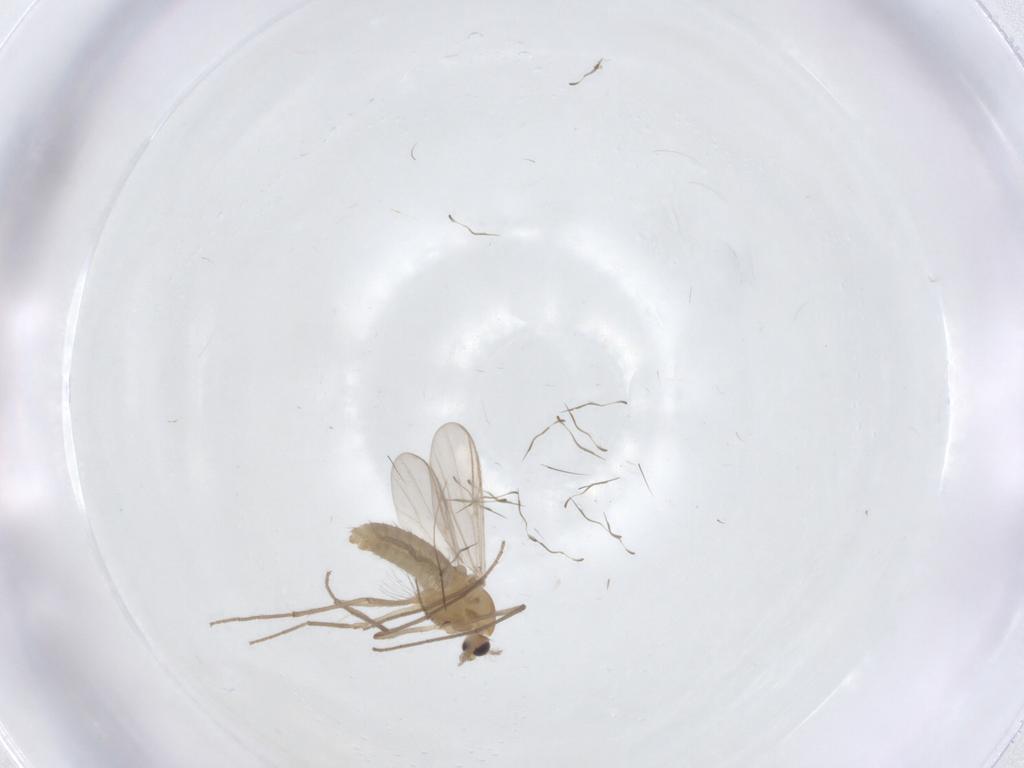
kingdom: Animalia
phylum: Arthropoda
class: Insecta
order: Diptera
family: Chironomidae
